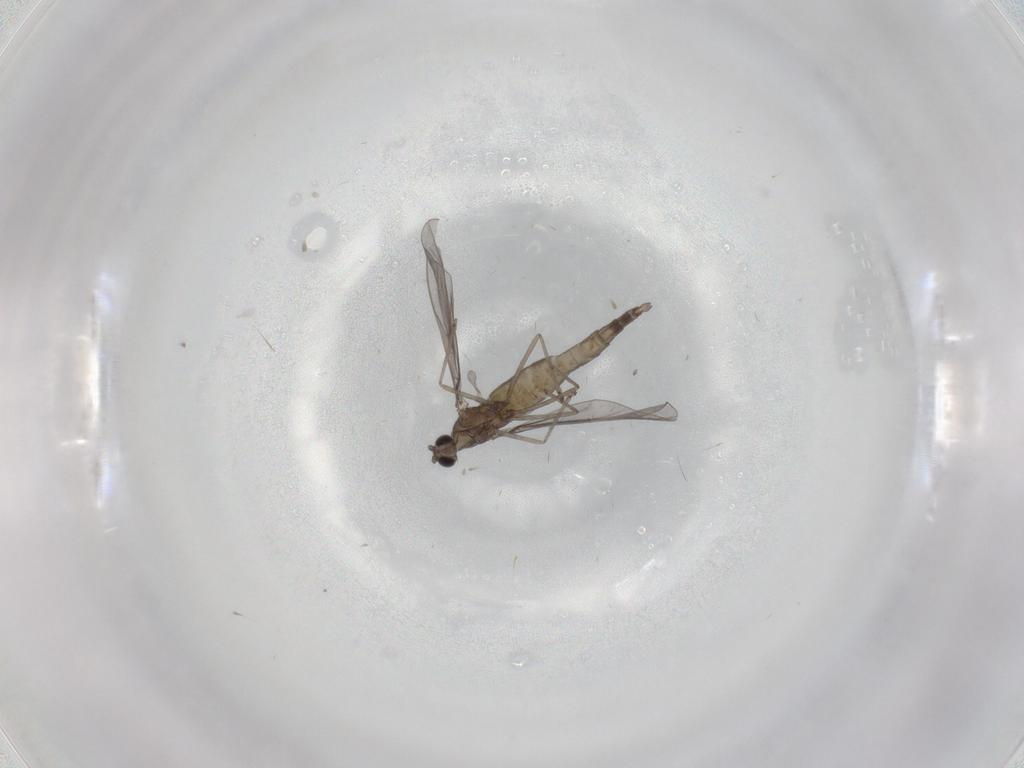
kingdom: Animalia
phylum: Arthropoda
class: Insecta
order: Diptera
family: Cecidomyiidae
